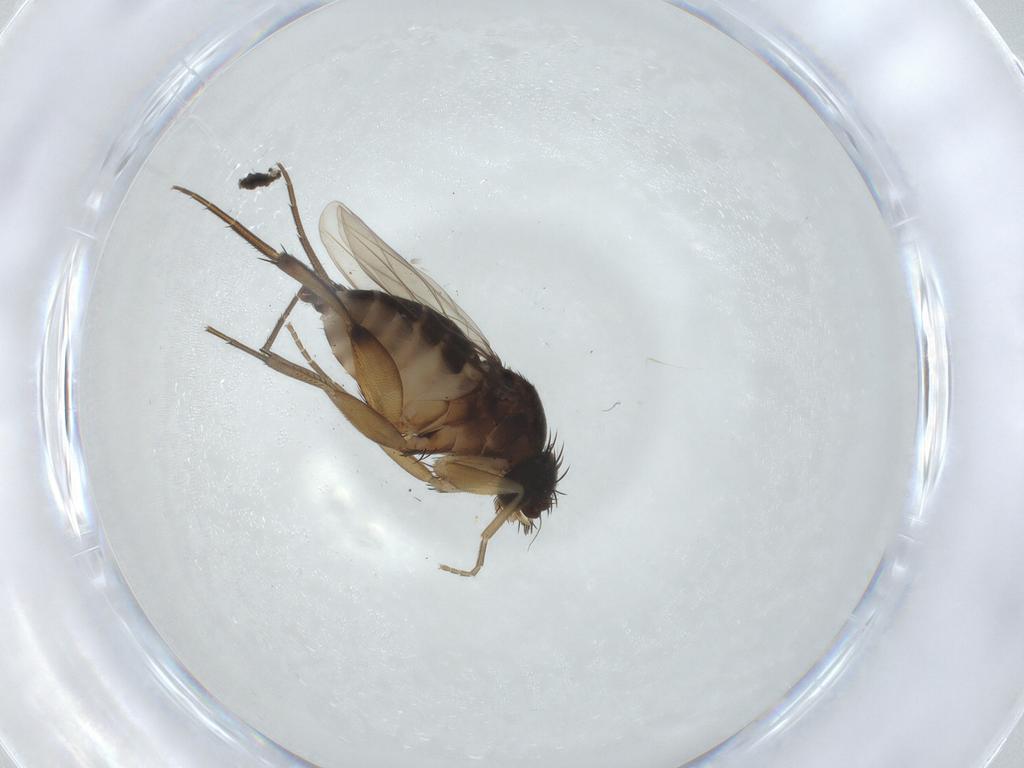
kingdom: Animalia
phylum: Arthropoda
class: Insecta
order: Diptera
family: Phoridae
